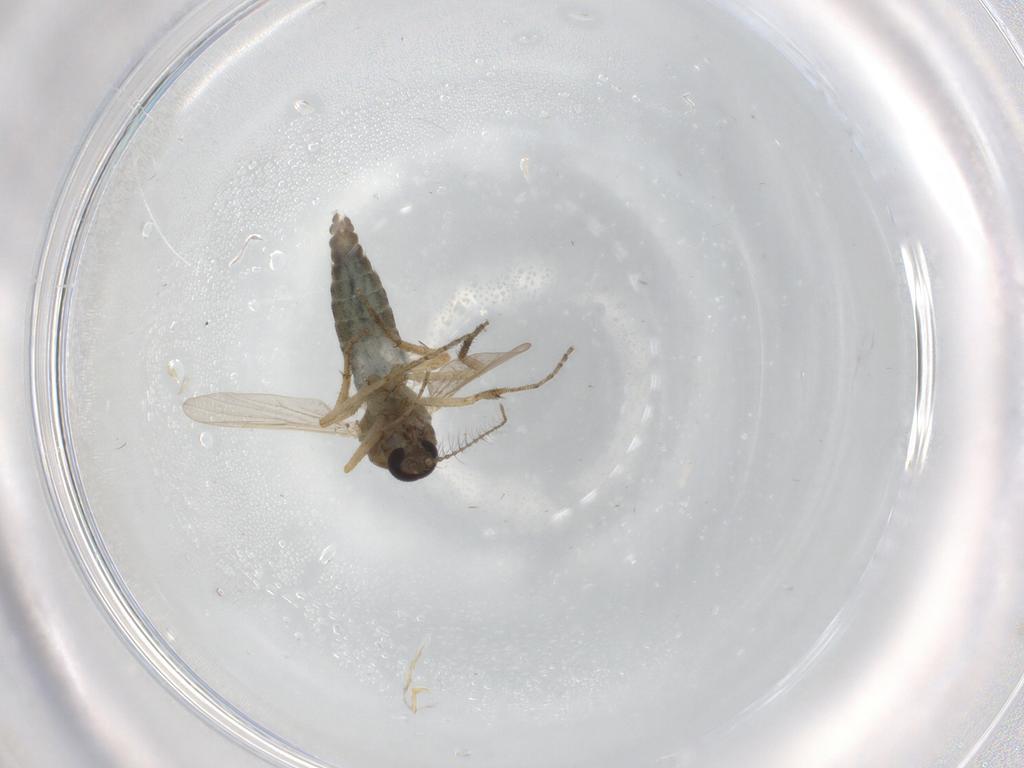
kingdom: Animalia
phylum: Arthropoda
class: Insecta
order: Diptera
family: Ceratopogonidae
